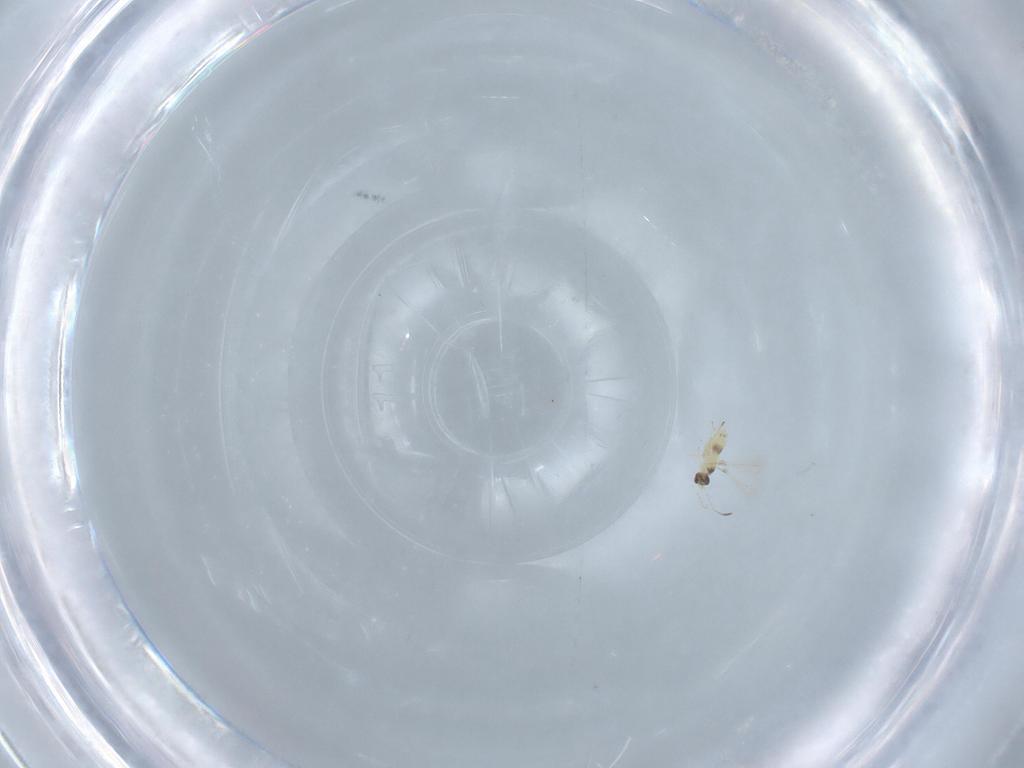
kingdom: Animalia
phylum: Arthropoda
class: Insecta
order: Hymenoptera
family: Mymaridae
